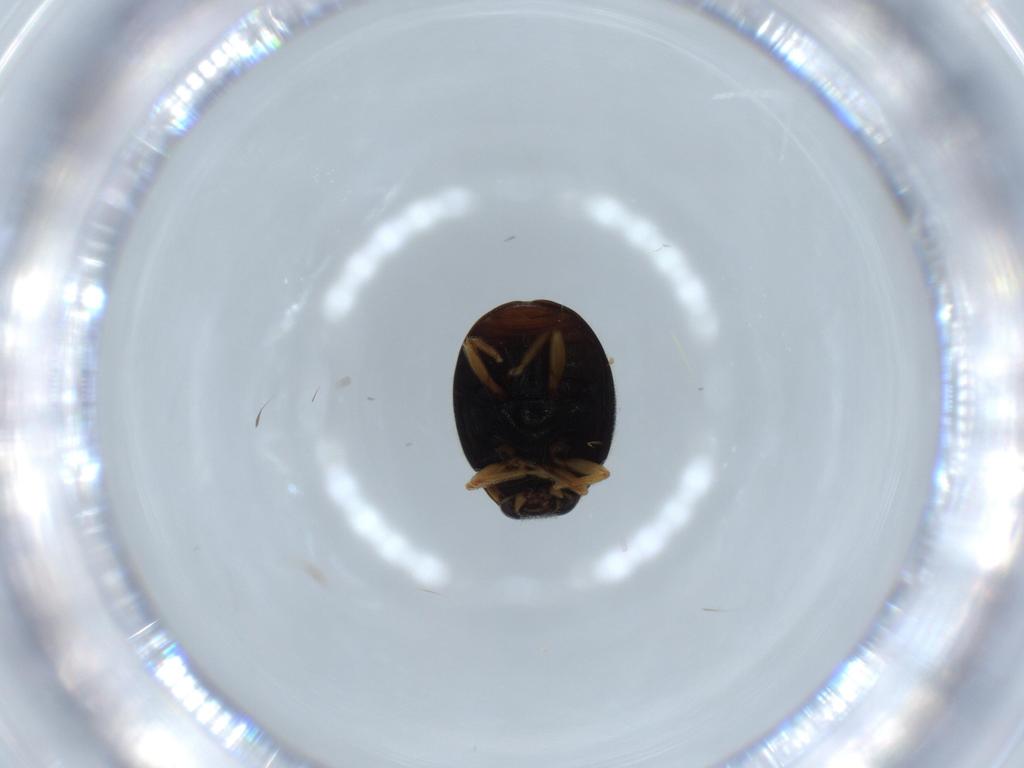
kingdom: Animalia
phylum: Arthropoda
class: Insecta
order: Coleoptera
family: Coccinellidae
